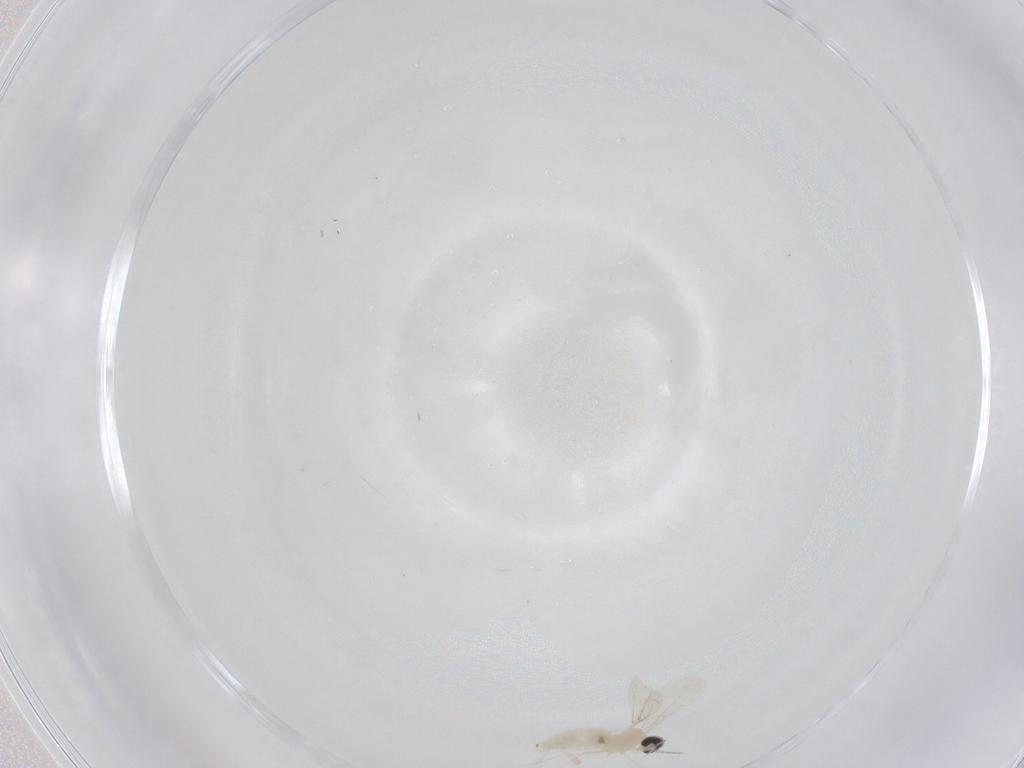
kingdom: Animalia
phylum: Arthropoda
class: Insecta
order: Diptera
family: Cecidomyiidae
